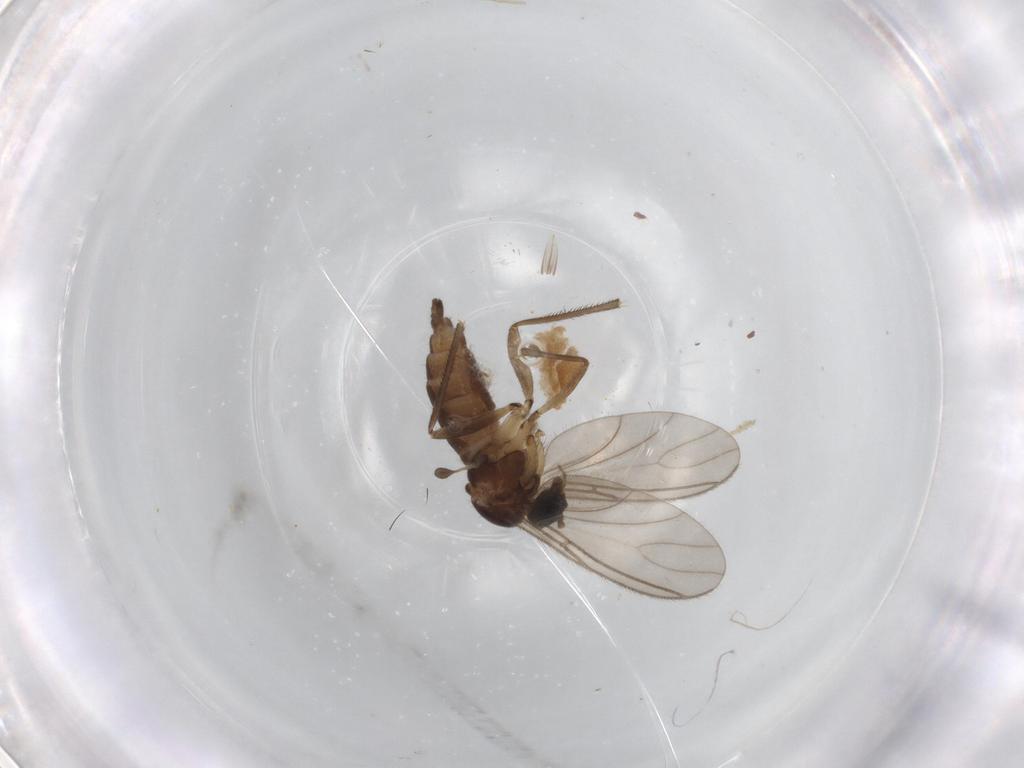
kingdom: Animalia
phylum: Arthropoda
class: Insecta
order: Diptera
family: Sciaridae
